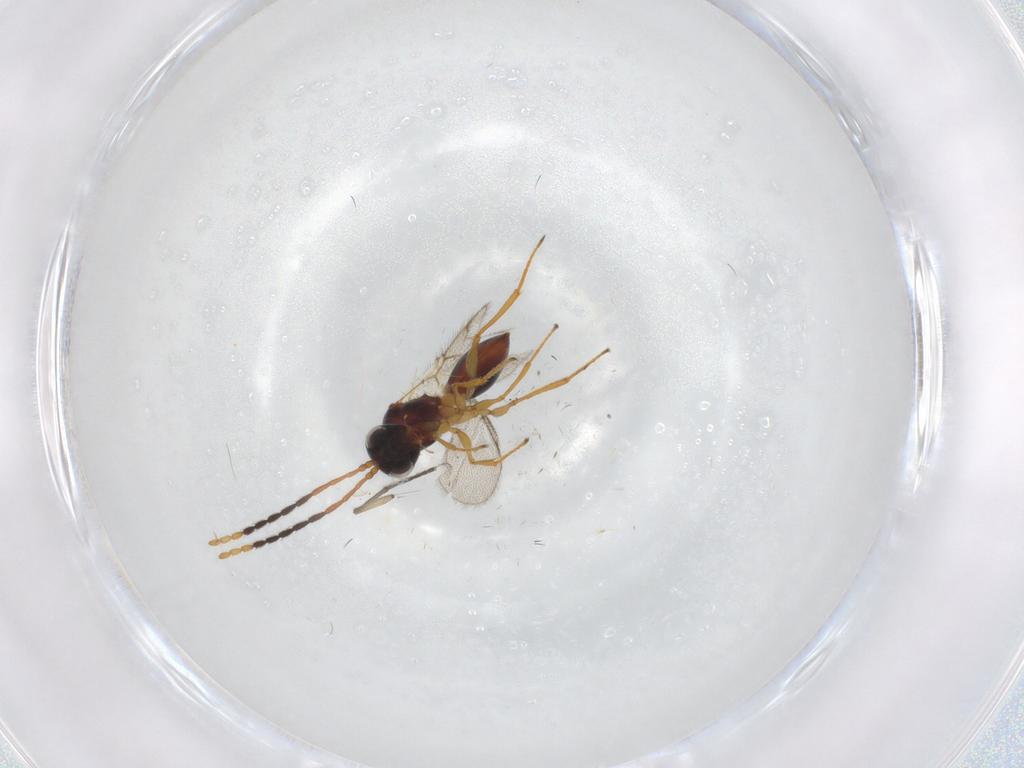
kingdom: Animalia
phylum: Arthropoda
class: Insecta
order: Hymenoptera
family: Figitidae
